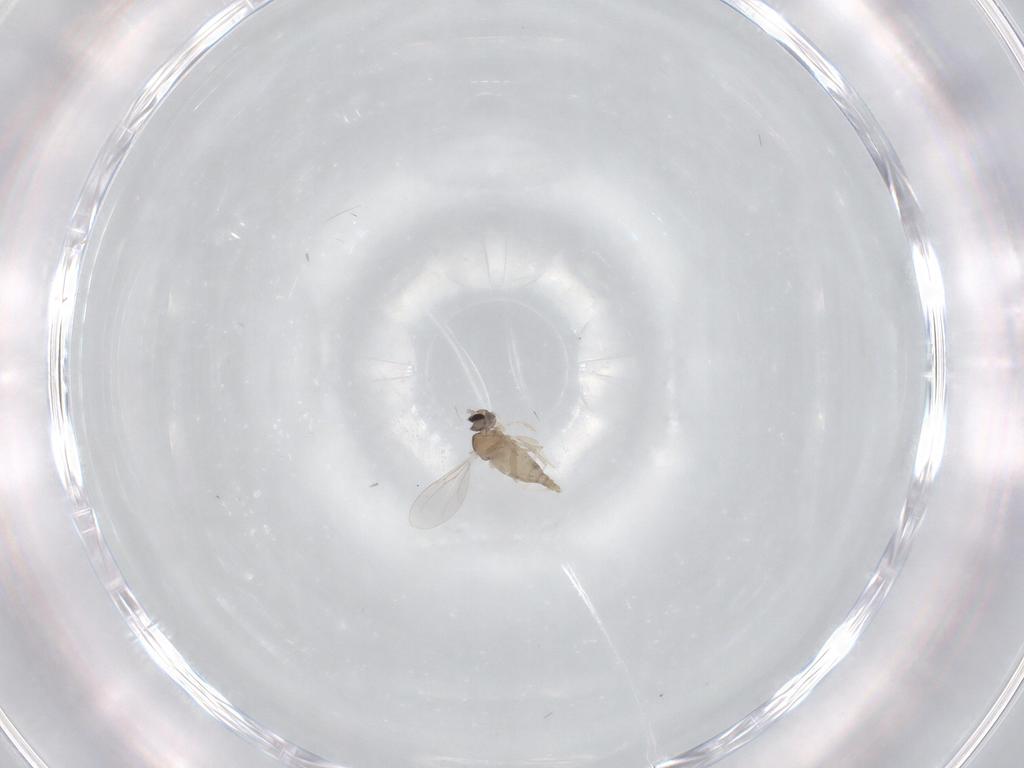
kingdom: Animalia
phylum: Arthropoda
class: Insecta
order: Diptera
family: Cecidomyiidae
